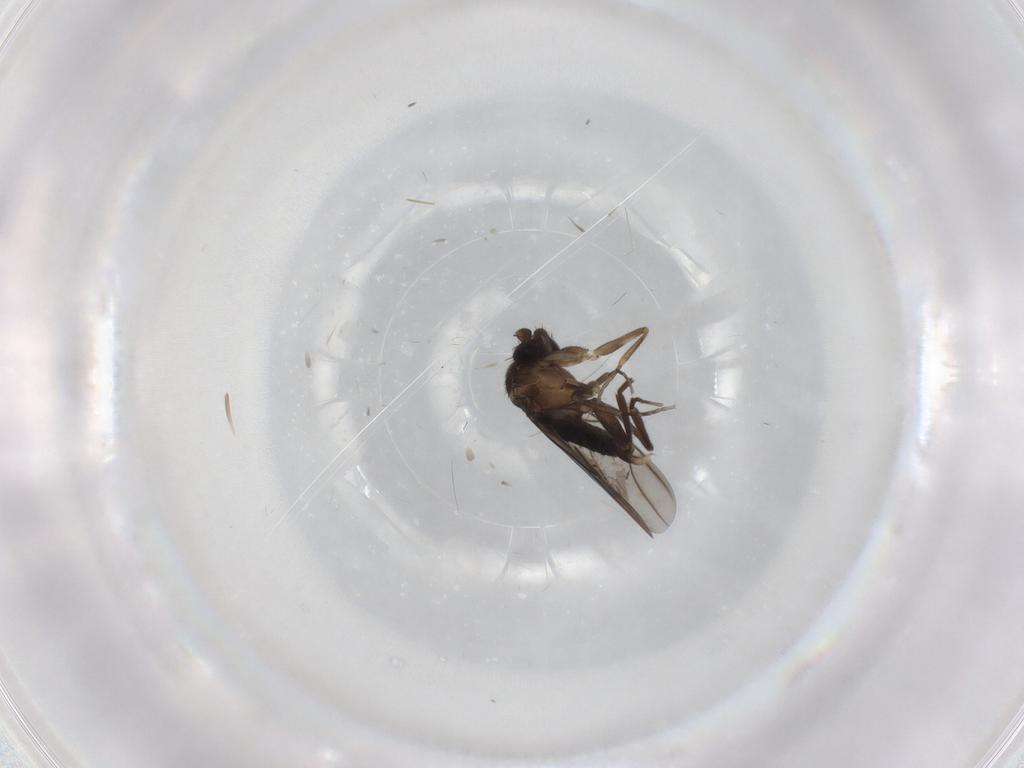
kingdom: Animalia
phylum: Arthropoda
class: Insecta
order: Diptera
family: Phoridae
